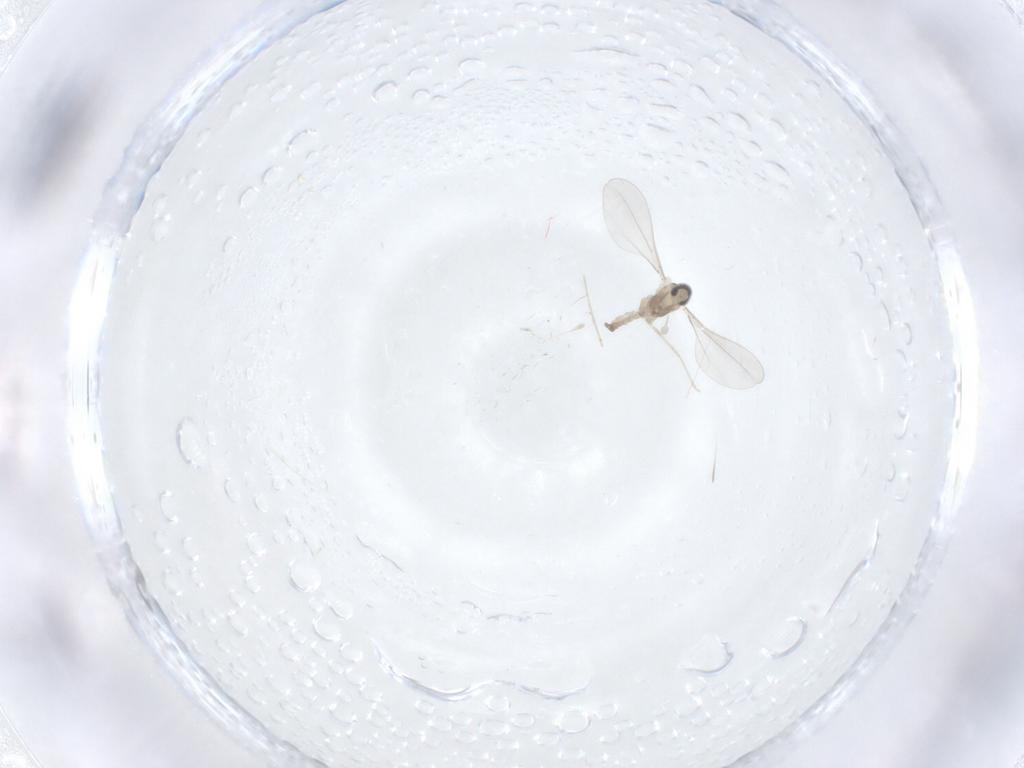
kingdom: Animalia
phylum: Arthropoda
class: Insecta
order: Diptera
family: Cecidomyiidae
